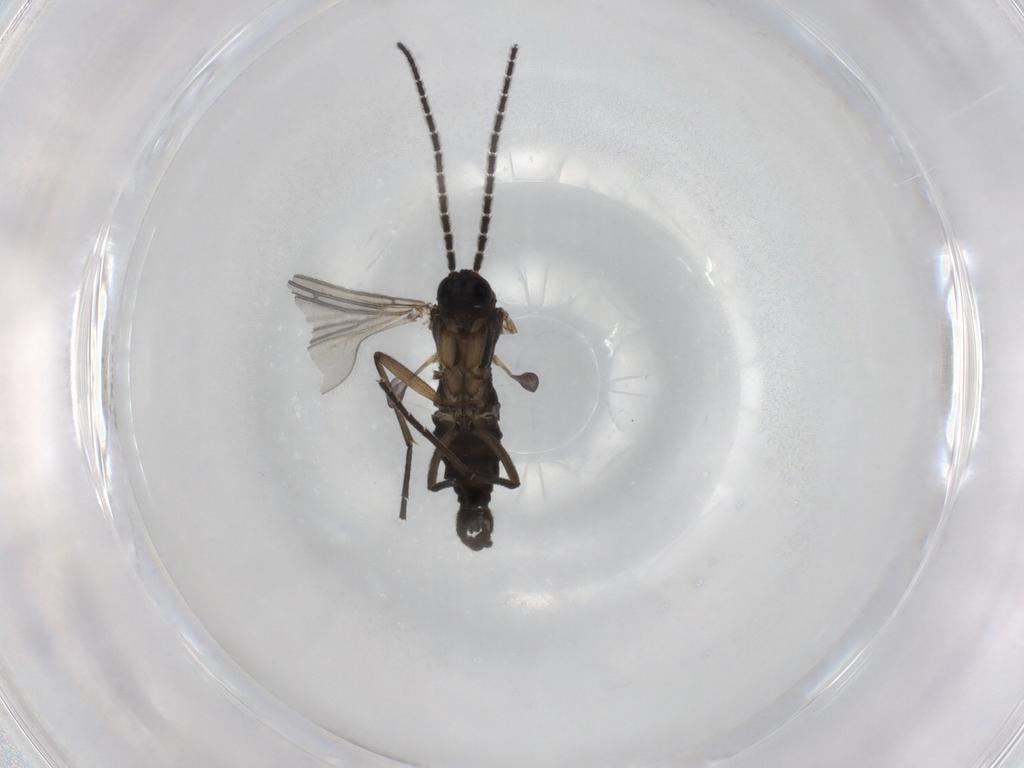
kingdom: Animalia
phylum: Arthropoda
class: Insecta
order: Diptera
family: Sciaridae
